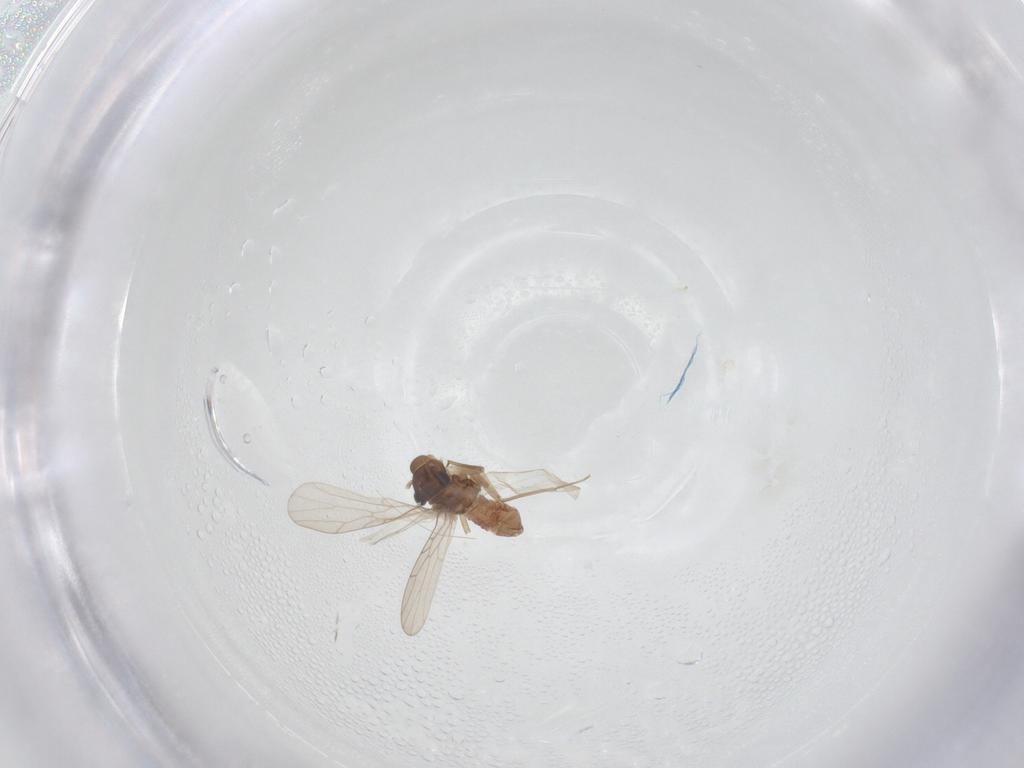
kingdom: Animalia
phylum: Arthropoda
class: Insecta
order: Psocodea
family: Lepidopsocidae
